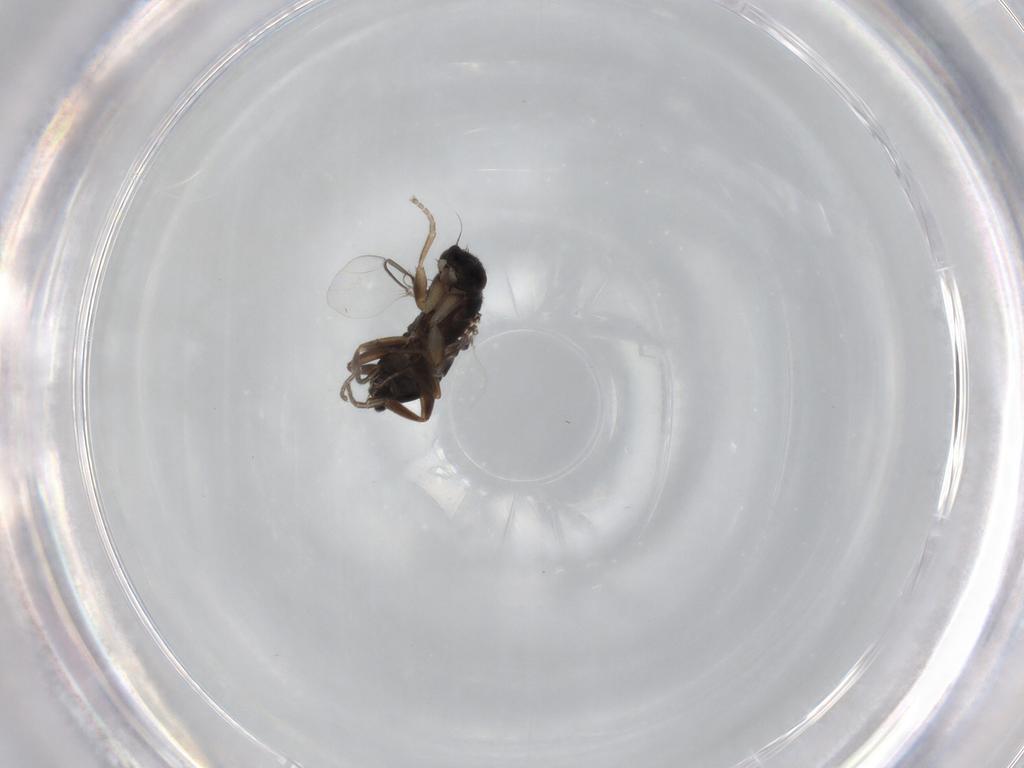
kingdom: Animalia
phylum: Arthropoda
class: Insecta
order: Diptera
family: Phoridae
